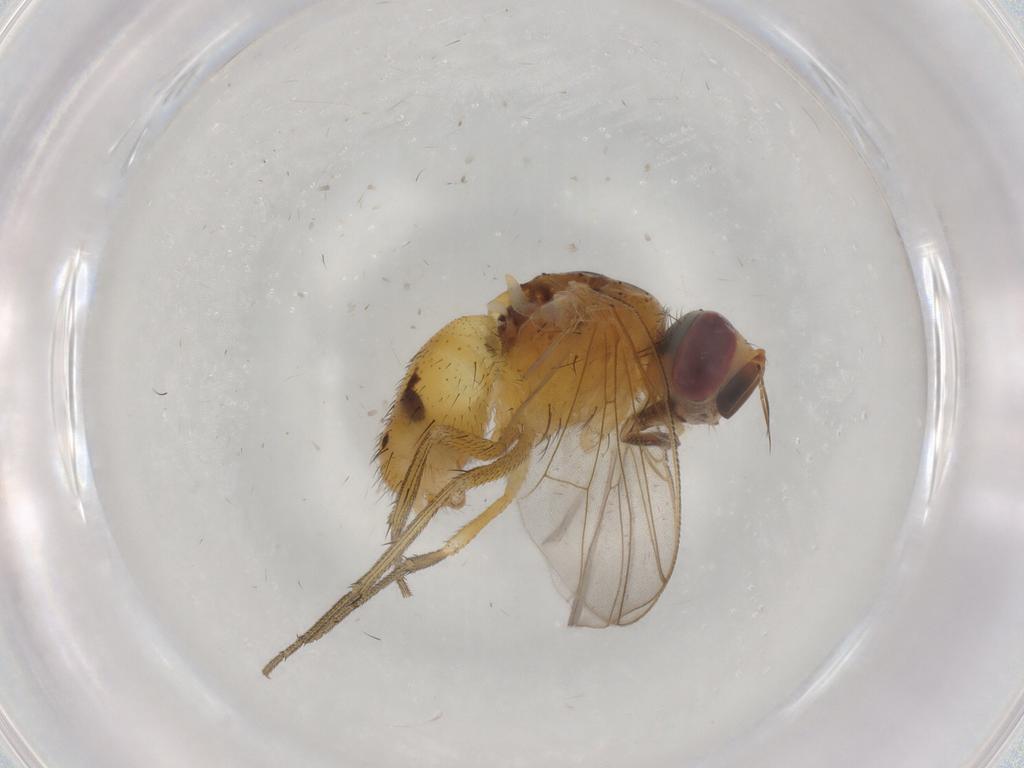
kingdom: Animalia
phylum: Arthropoda
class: Insecta
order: Diptera
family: Muscidae
